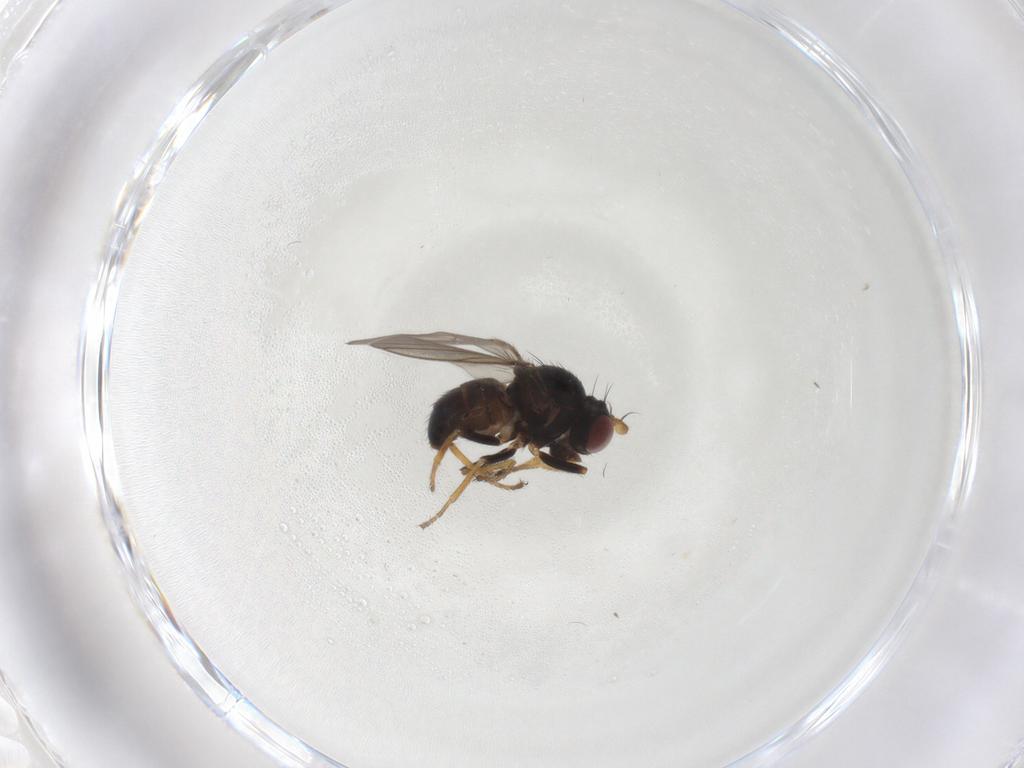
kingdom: Animalia
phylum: Arthropoda
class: Insecta
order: Diptera
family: Ephydridae
